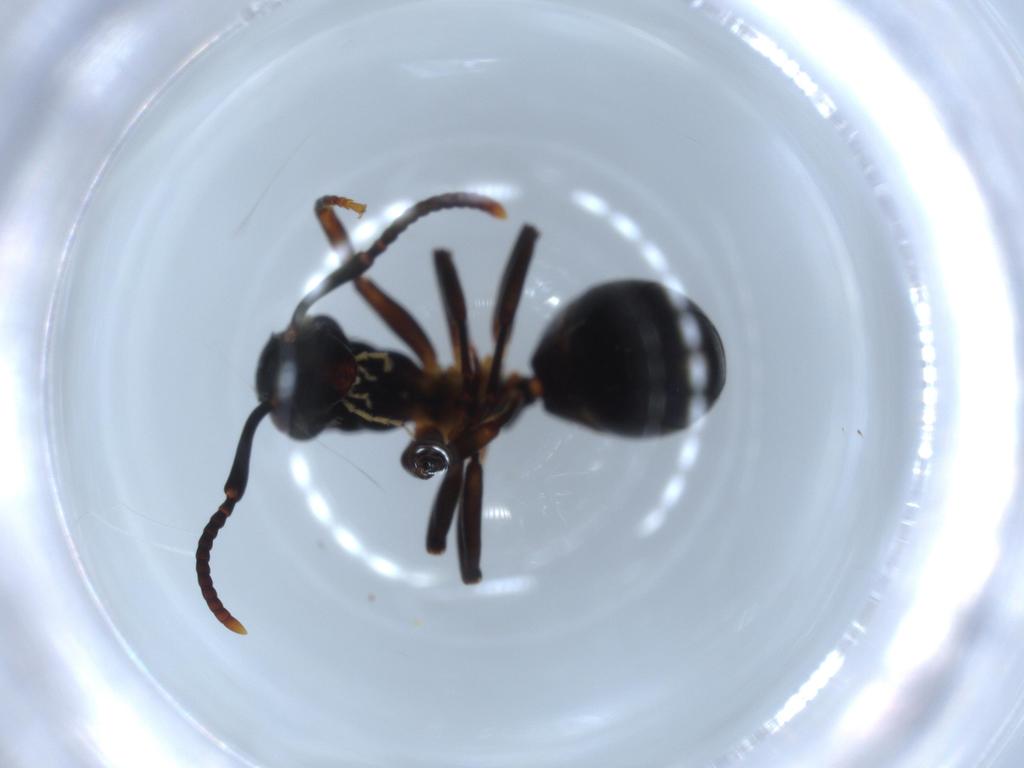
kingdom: Animalia
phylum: Arthropoda
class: Insecta
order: Hymenoptera
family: Formicidae
